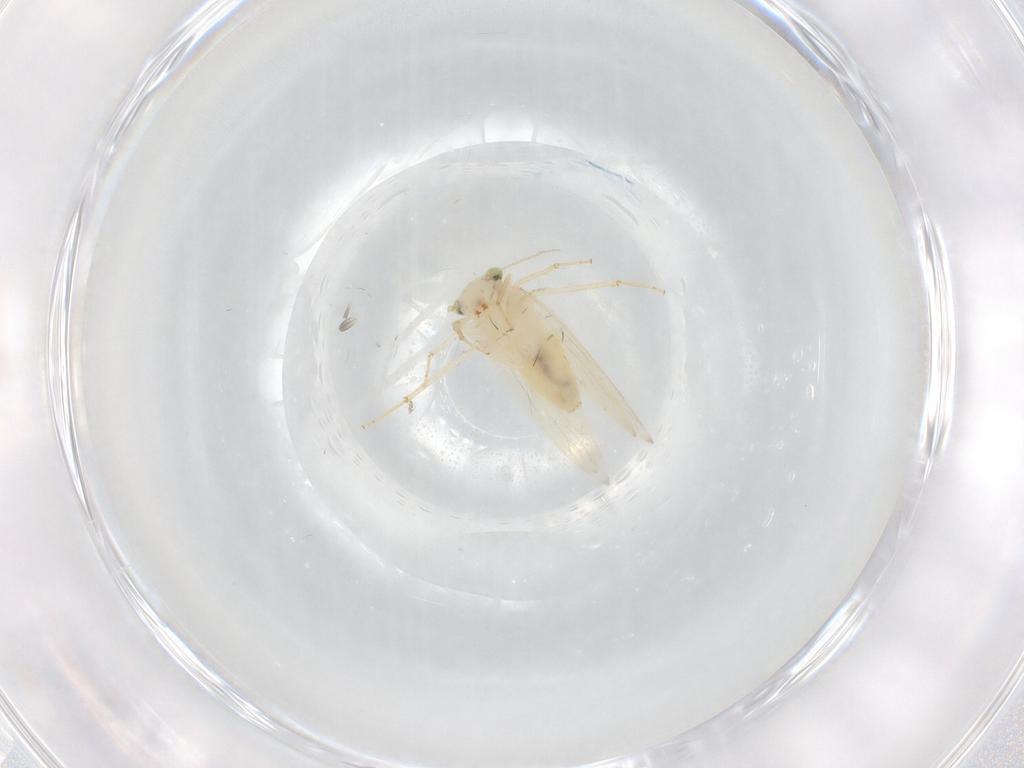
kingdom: Animalia
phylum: Arthropoda
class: Insecta
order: Psocodea
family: Lepidopsocidae
